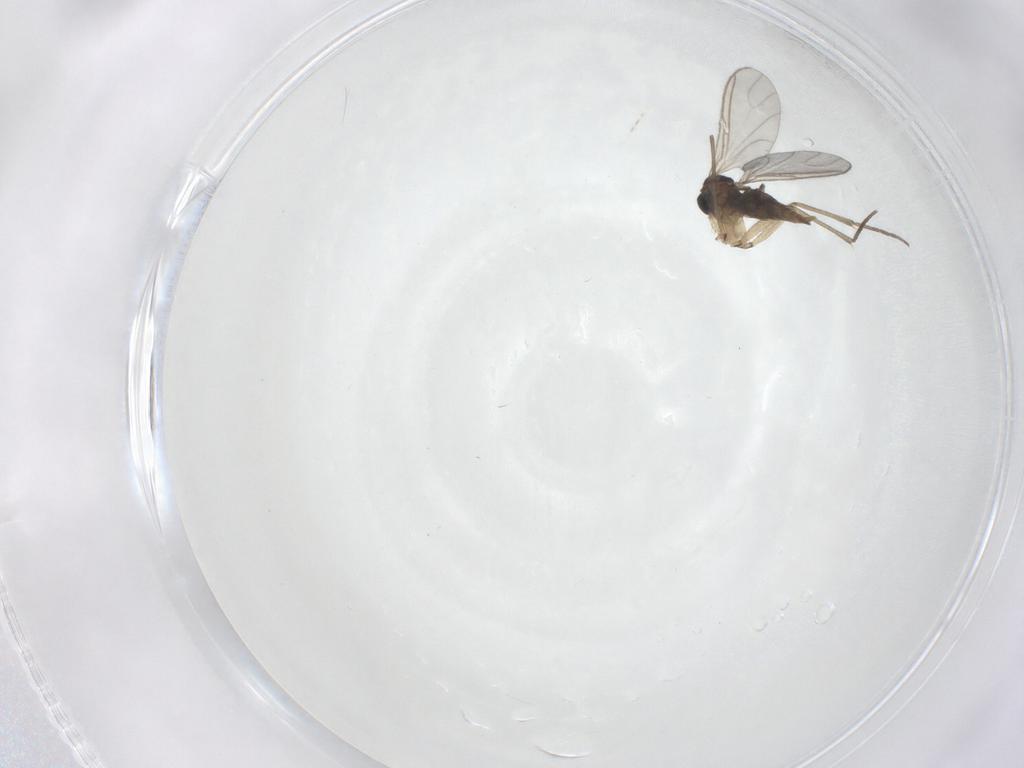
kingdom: Animalia
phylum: Arthropoda
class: Insecta
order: Diptera
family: Sciaridae
